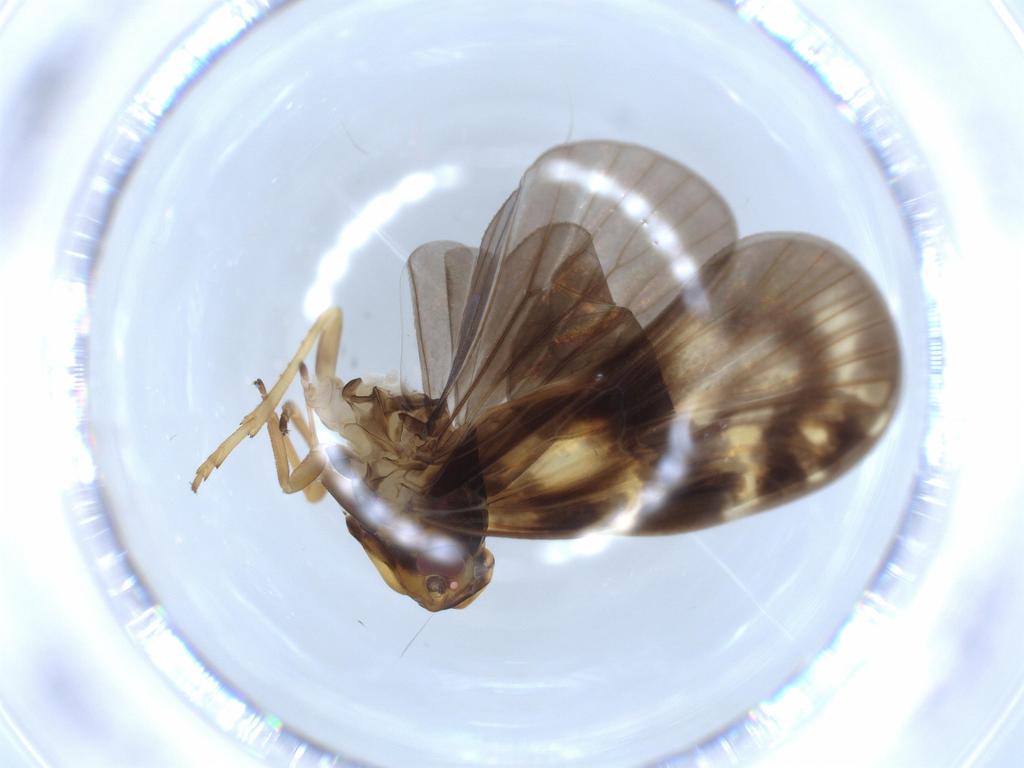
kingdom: Animalia
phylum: Arthropoda
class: Insecta
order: Hemiptera
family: Cixiidae
